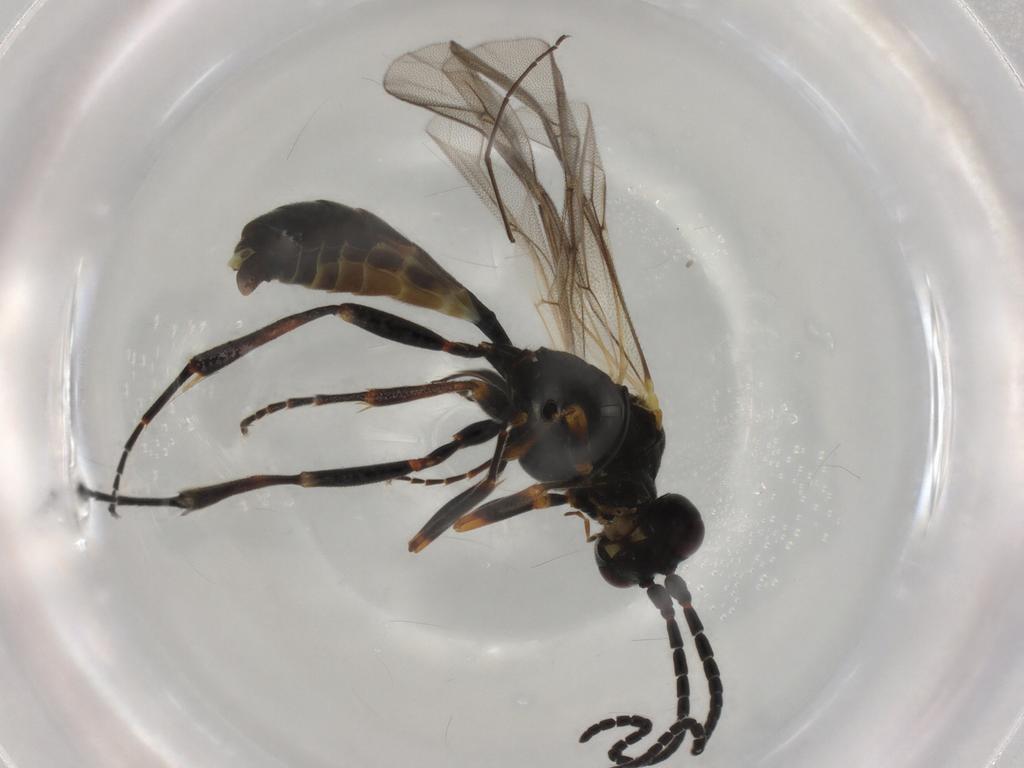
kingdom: Animalia
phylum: Arthropoda
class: Insecta
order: Hymenoptera
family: Ichneumonidae
